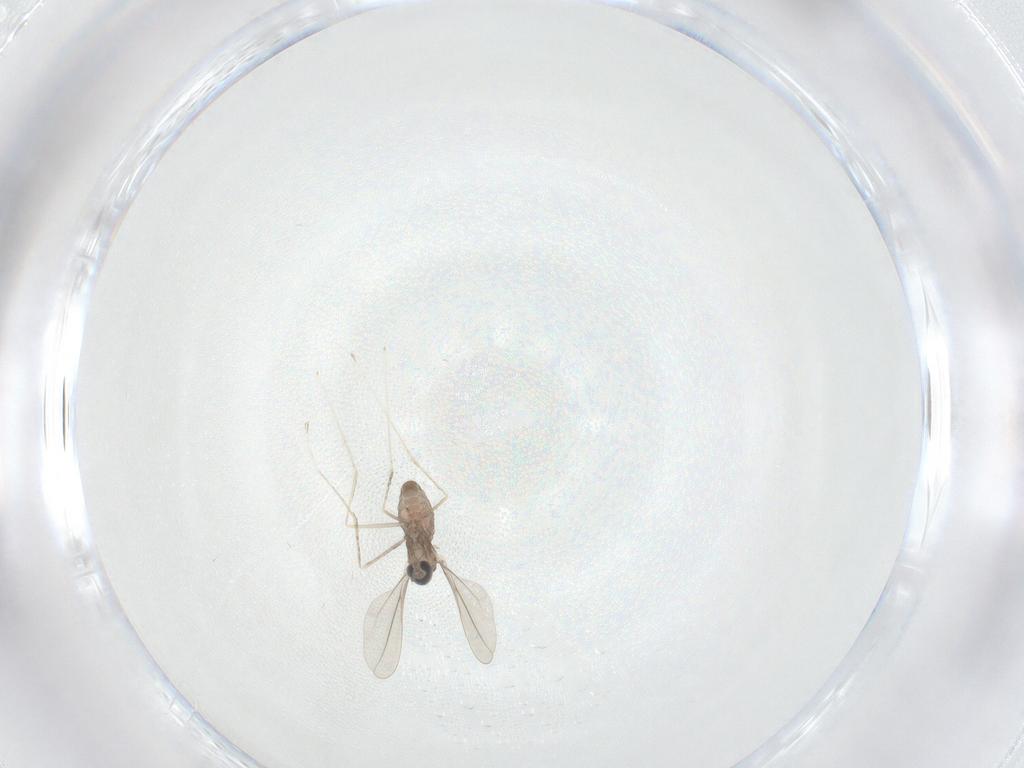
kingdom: Animalia
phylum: Arthropoda
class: Insecta
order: Diptera
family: Cecidomyiidae
